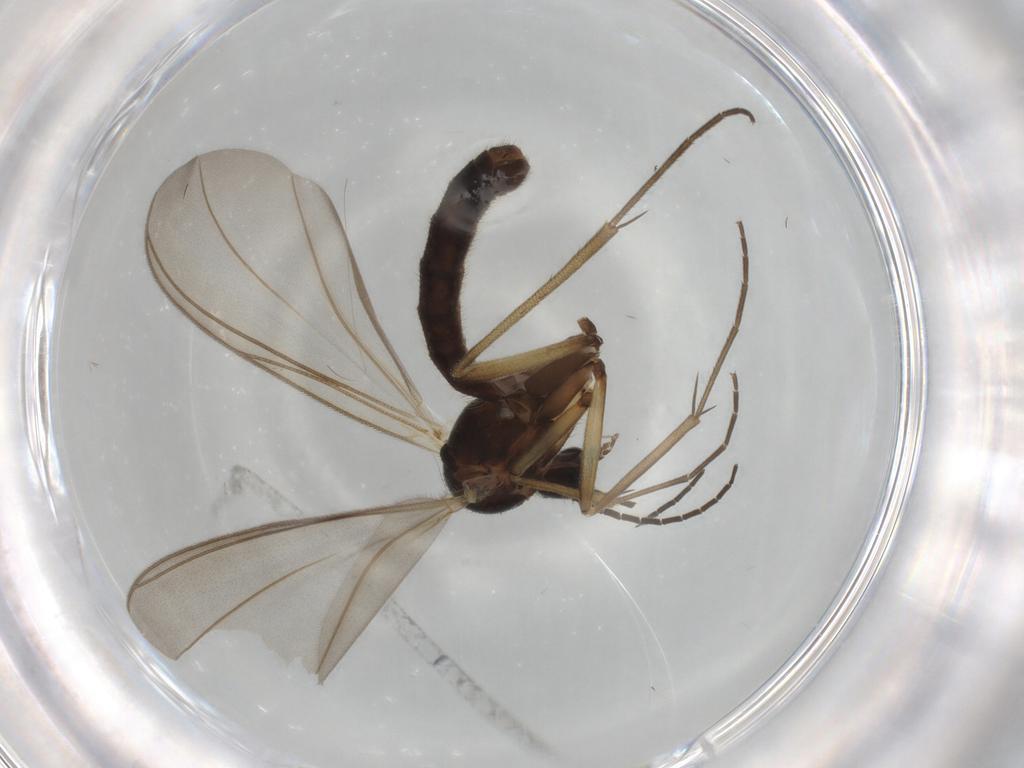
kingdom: Animalia
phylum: Arthropoda
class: Insecta
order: Diptera
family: Mycetophilidae
